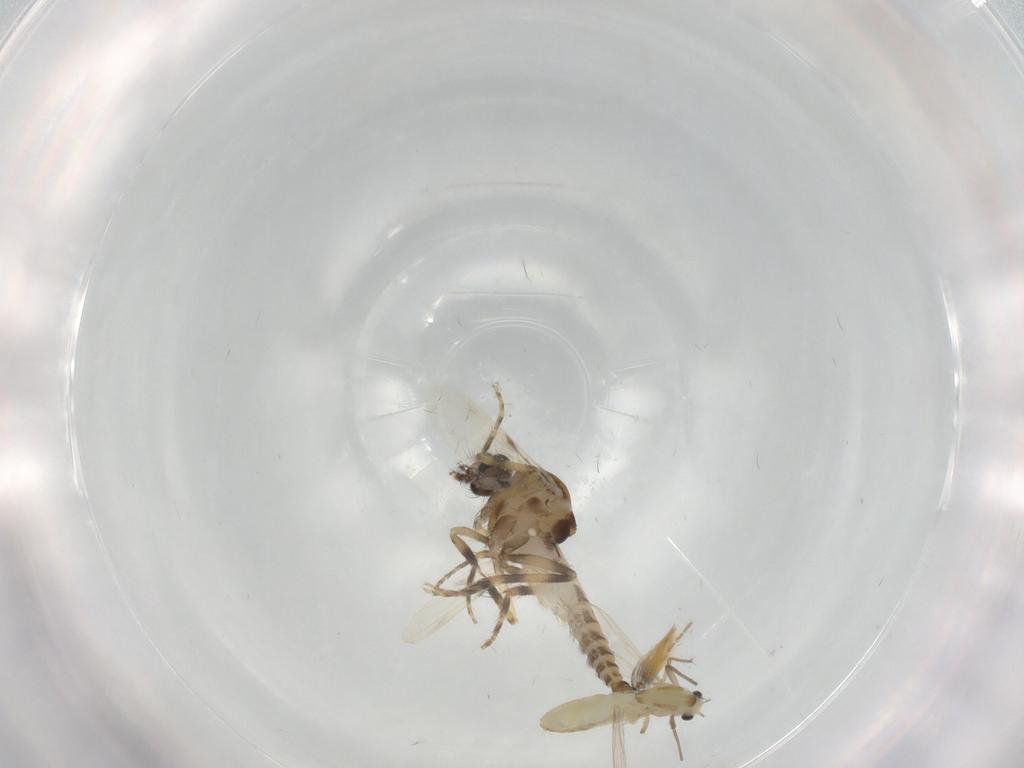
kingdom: Animalia
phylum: Arthropoda
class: Insecta
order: Diptera
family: Chironomidae
